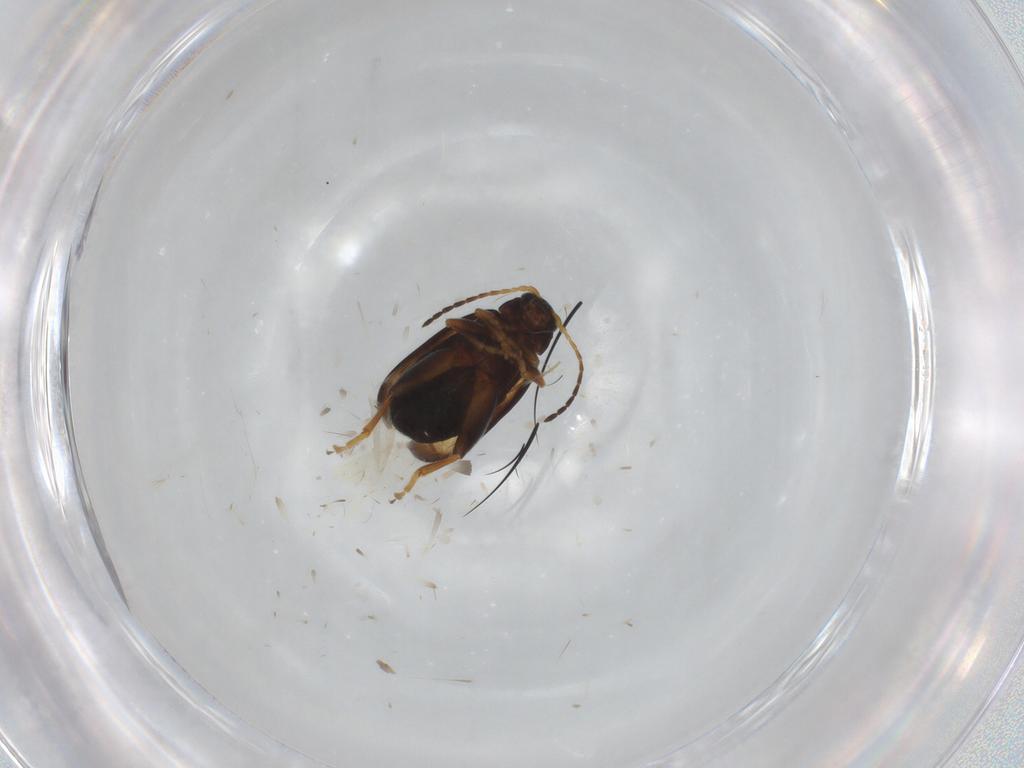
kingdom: Animalia
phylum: Arthropoda
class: Insecta
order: Coleoptera
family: Chrysomelidae
